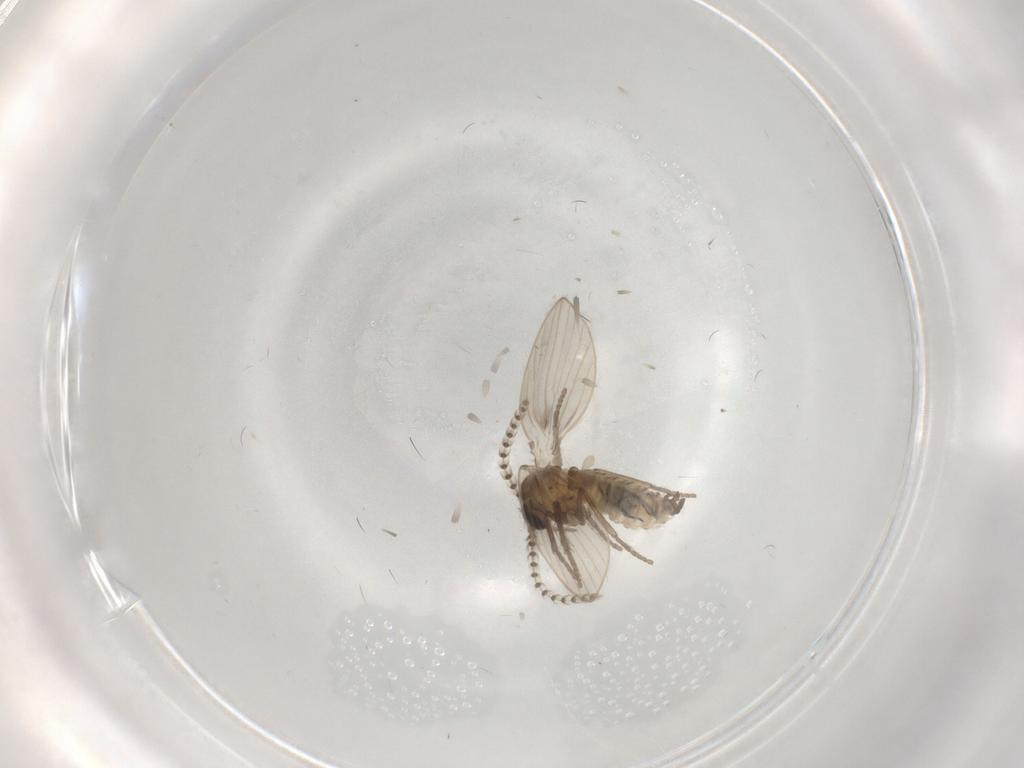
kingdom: Animalia
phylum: Arthropoda
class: Insecta
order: Diptera
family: Psychodidae
